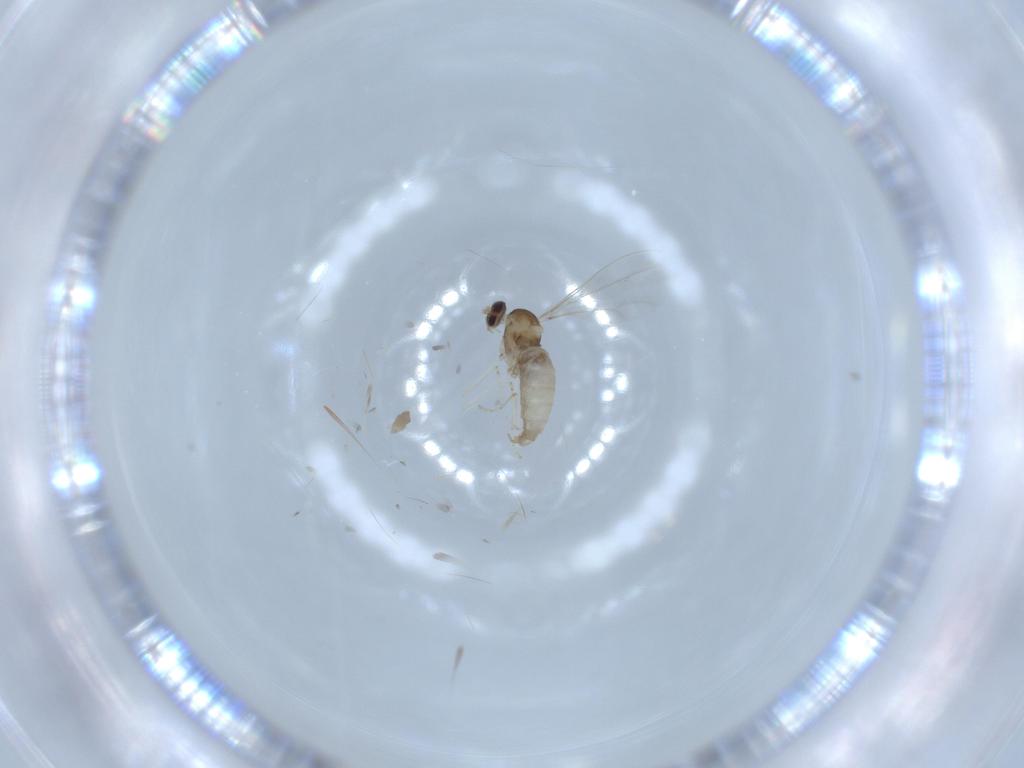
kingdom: Animalia
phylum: Arthropoda
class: Insecta
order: Diptera
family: Cecidomyiidae
